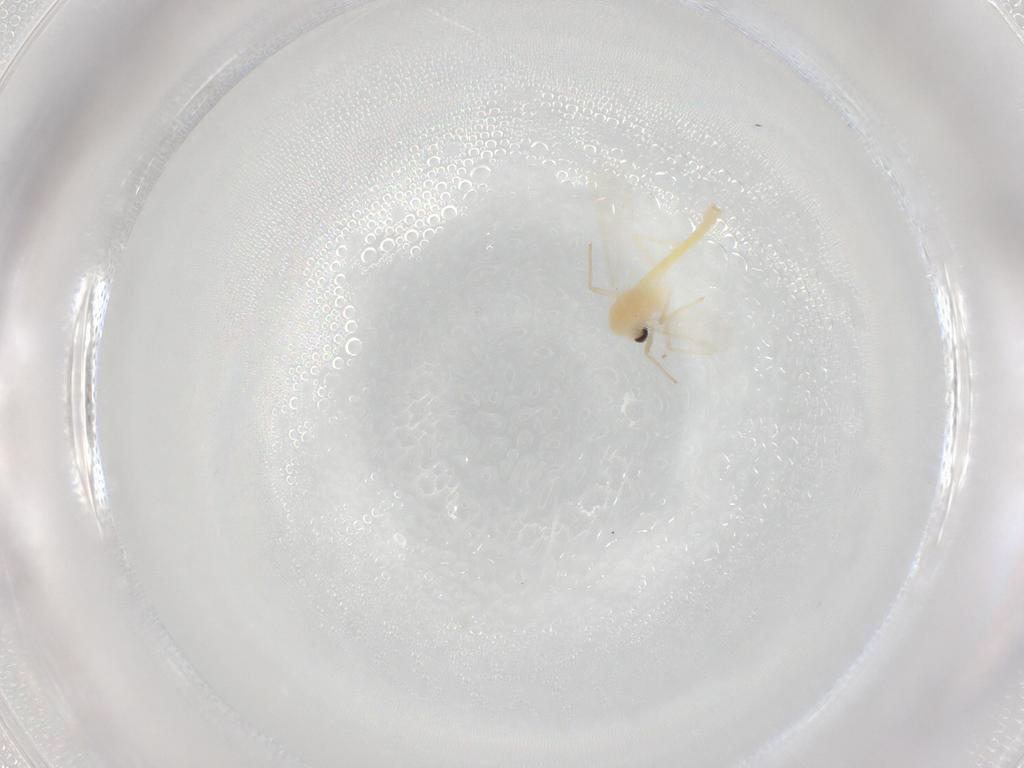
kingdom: Animalia
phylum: Arthropoda
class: Insecta
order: Diptera
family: Chironomidae
